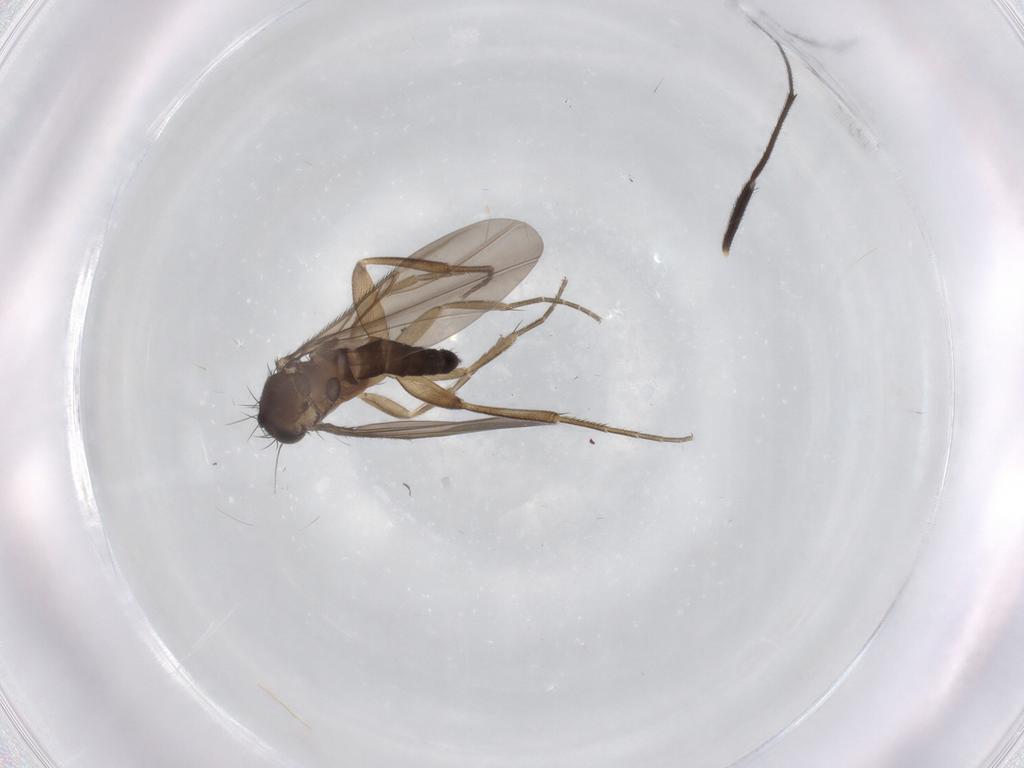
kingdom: Animalia
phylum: Arthropoda
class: Insecta
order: Diptera
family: Phoridae
